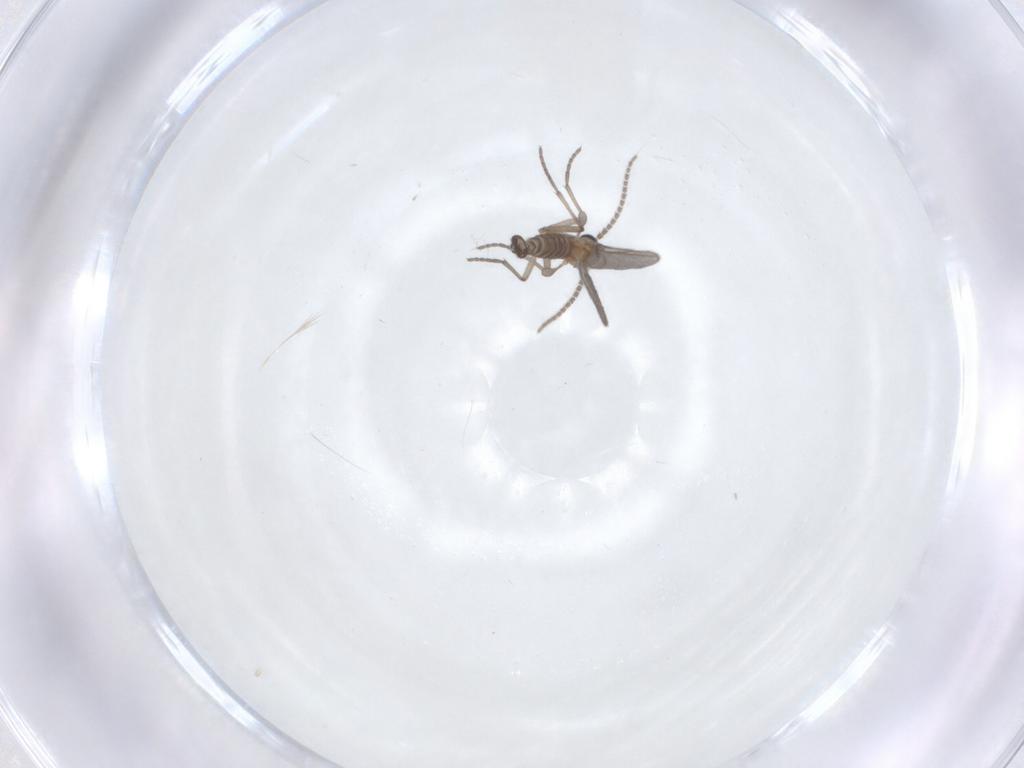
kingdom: Animalia
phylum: Arthropoda
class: Insecta
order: Diptera
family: Sciaridae
